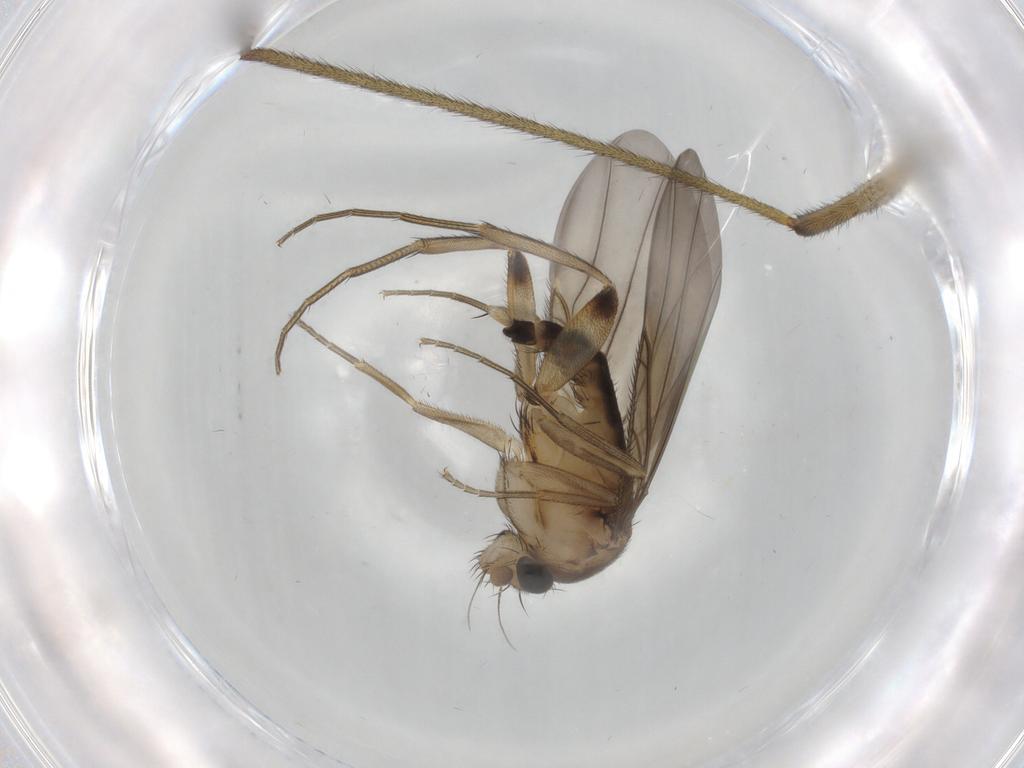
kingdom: Animalia
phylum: Arthropoda
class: Insecta
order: Diptera
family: Phoridae
